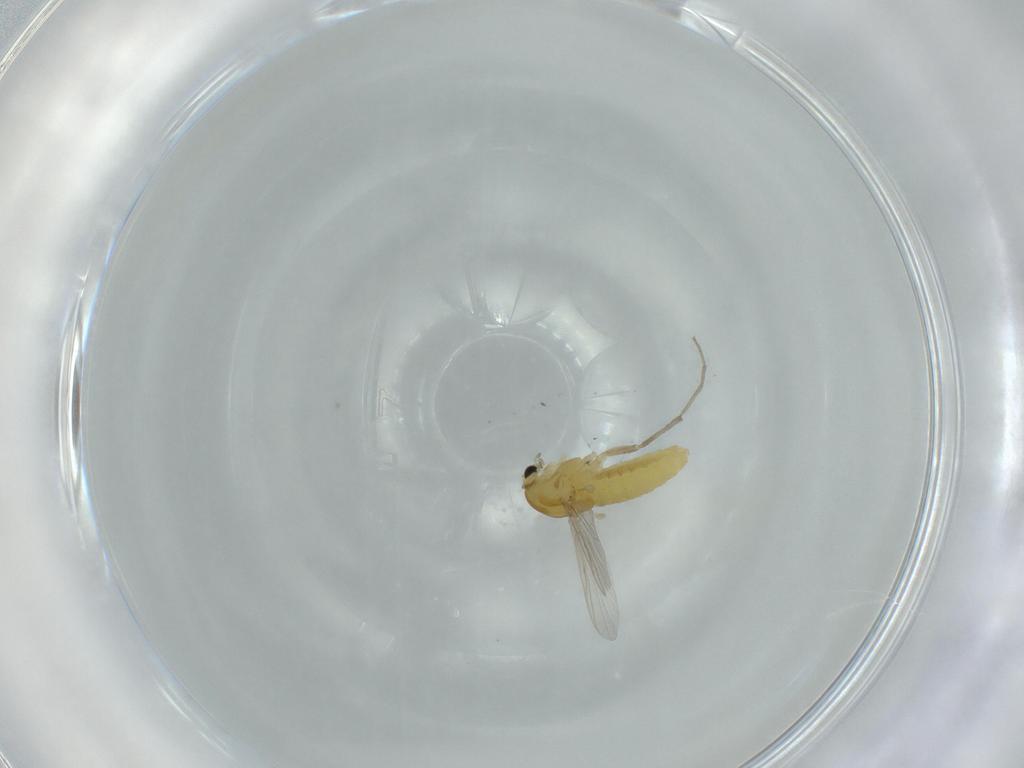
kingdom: Animalia
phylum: Arthropoda
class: Insecta
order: Diptera
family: Chironomidae
